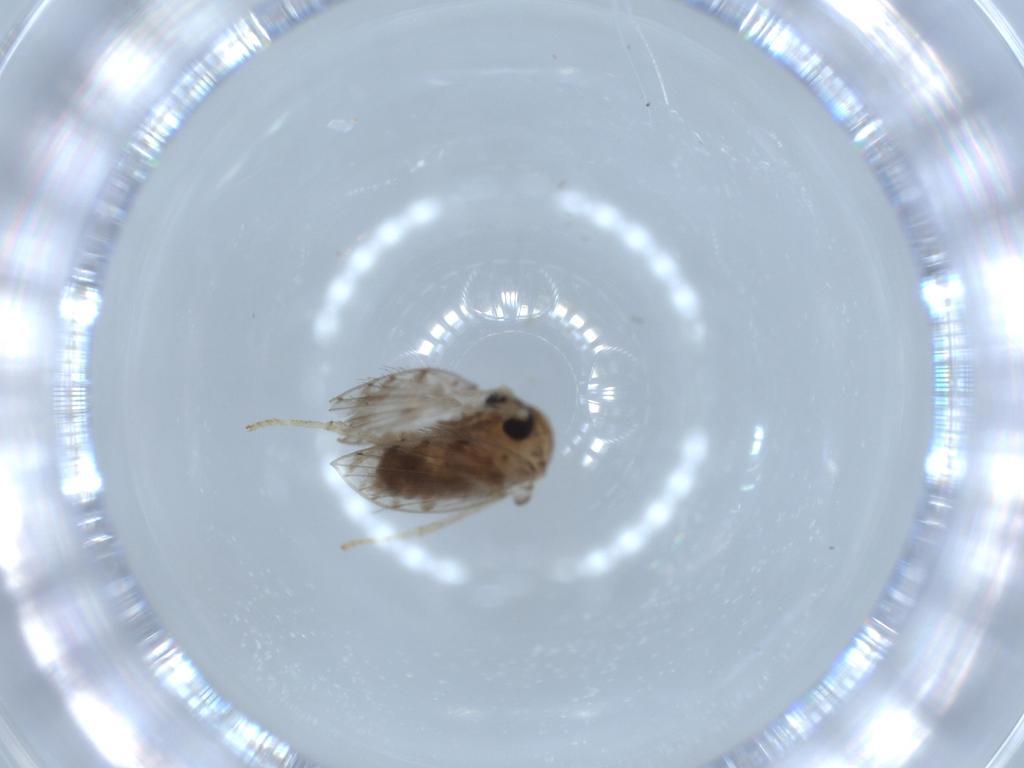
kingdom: Animalia
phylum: Arthropoda
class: Insecta
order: Diptera
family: Psychodidae
